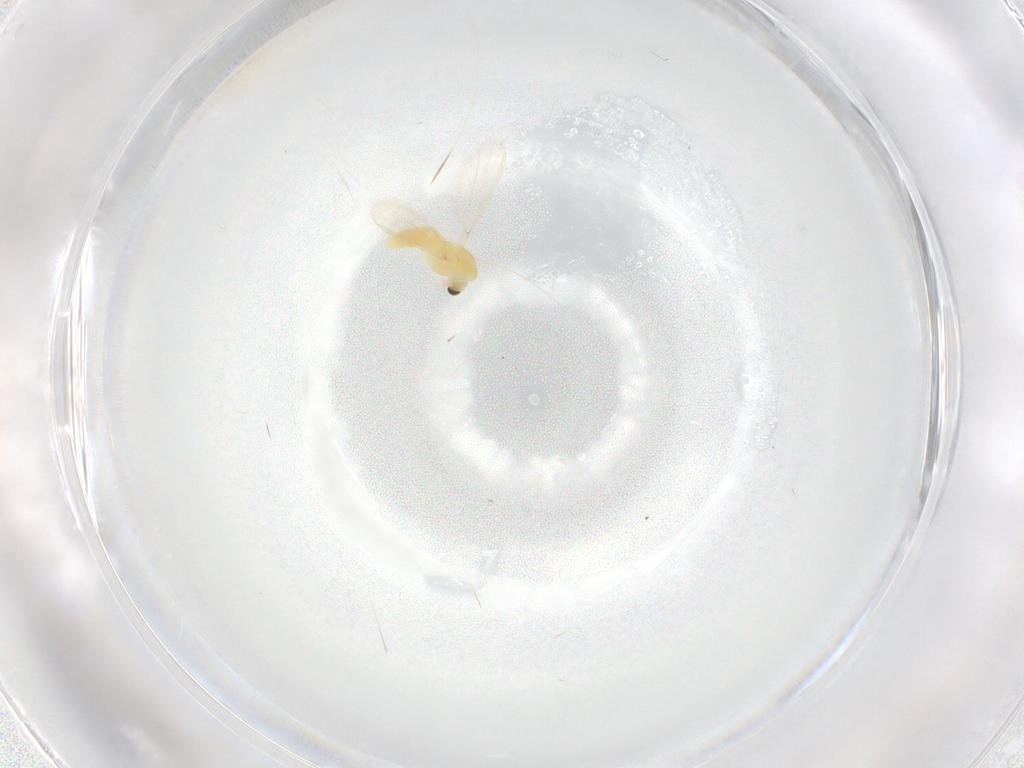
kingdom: Animalia
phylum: Arthropoda
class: Insecta
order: Diptera
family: Chironomidae
